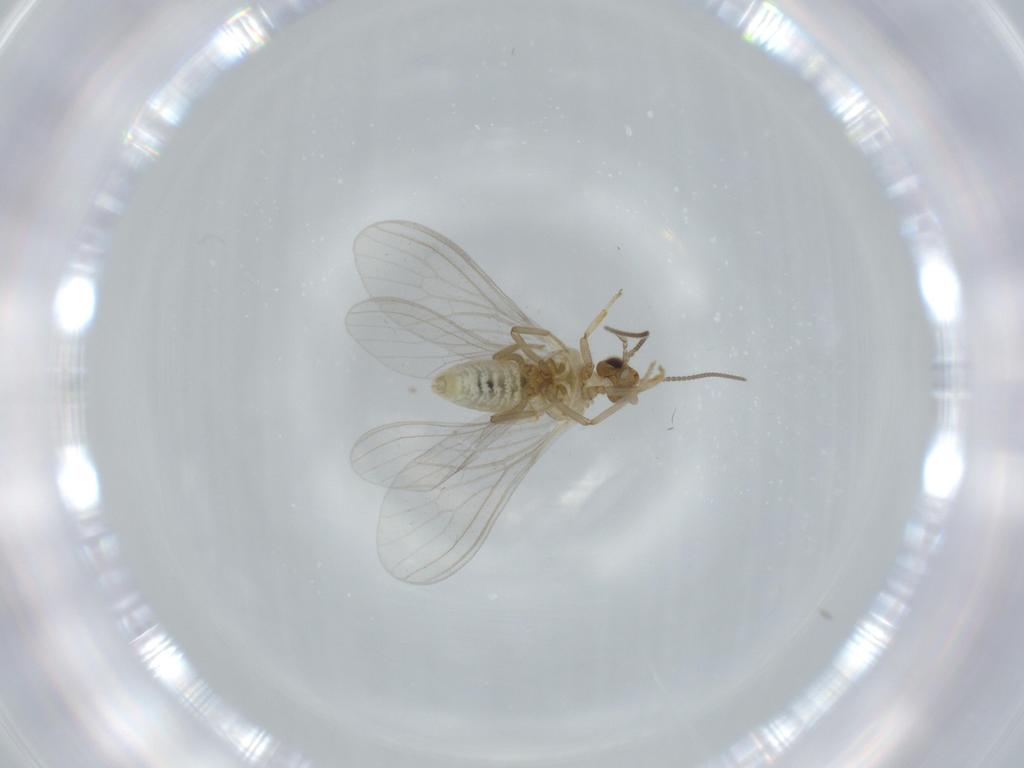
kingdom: Animalia
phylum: Arthropoda
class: Insecta
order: Neuroptera
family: Coniopterygidae
